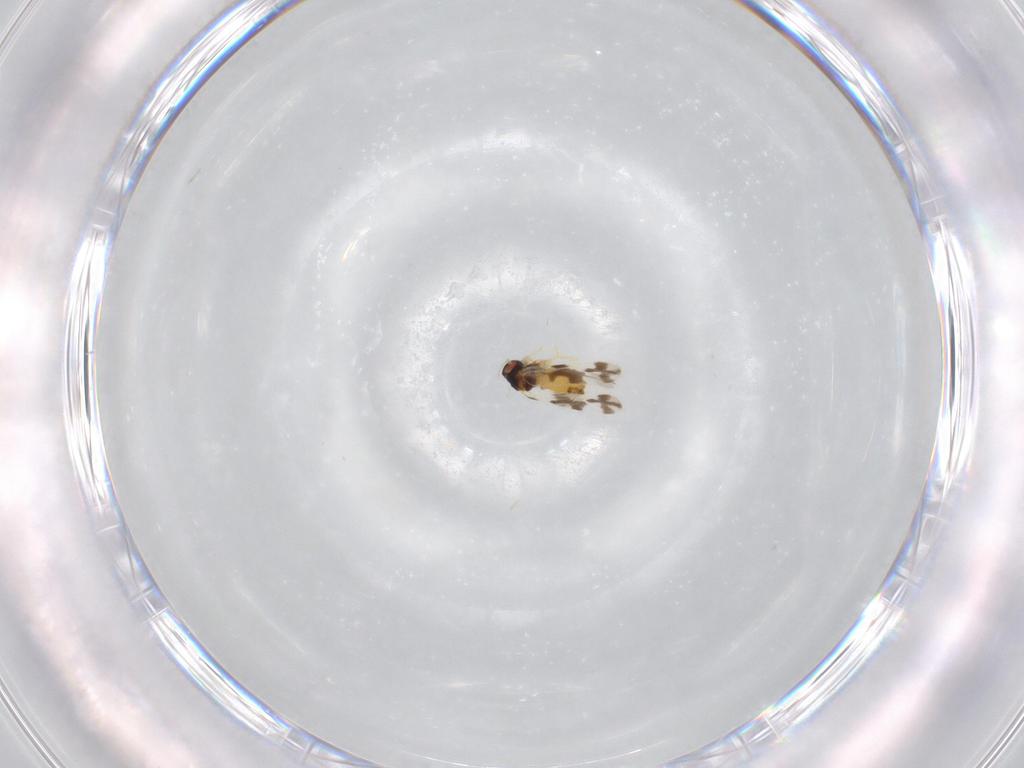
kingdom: Animalia
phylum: Arthropoda
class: Insecta
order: Hemiptera
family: Aleyrodidae
